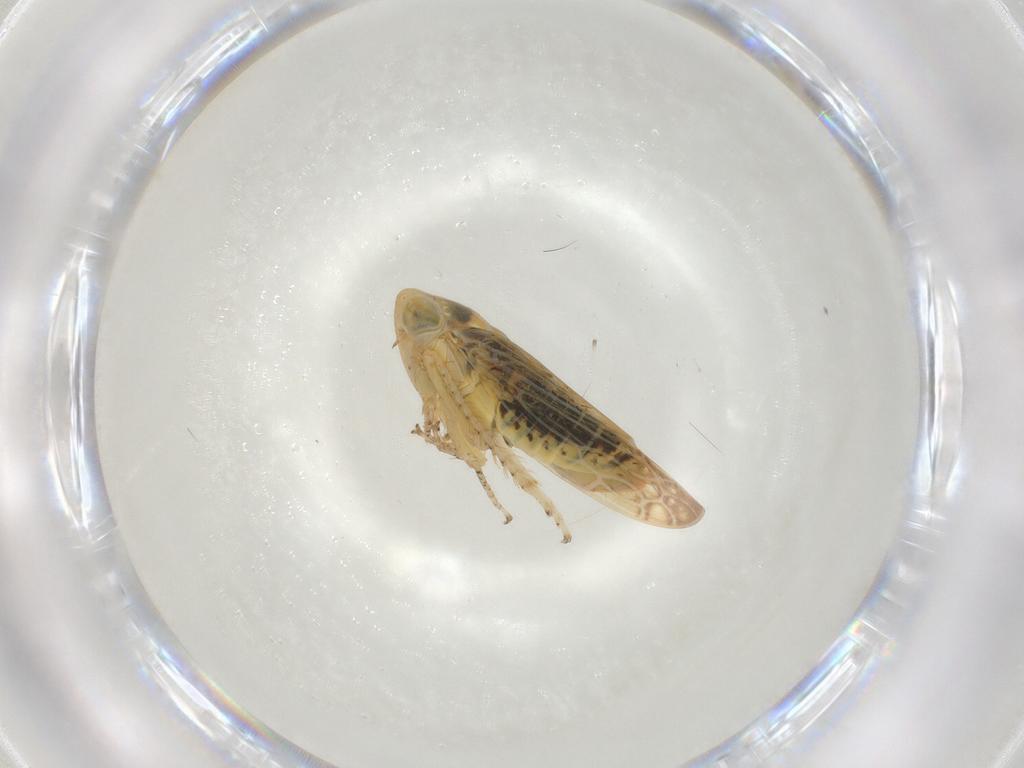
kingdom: Animalia
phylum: Arthropoda
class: Insecta
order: Hemiptera
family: Cicadellidae
